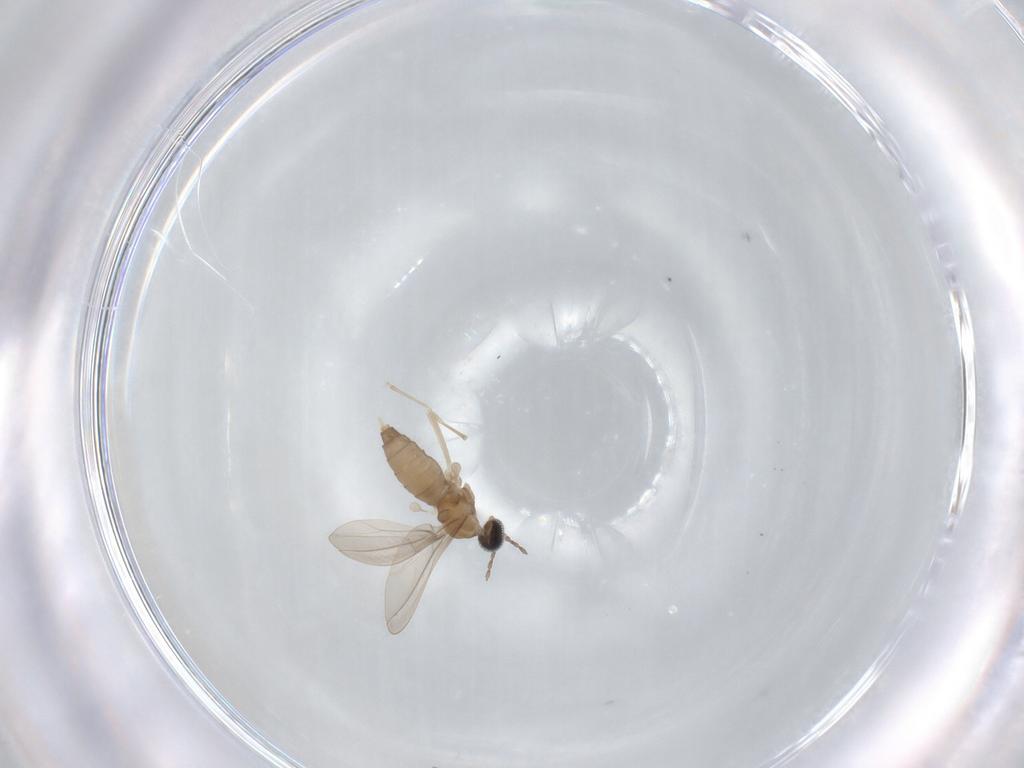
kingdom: Animalia
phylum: Arthropoda
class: Insecta
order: Diptera
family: Cecidomyiidae
